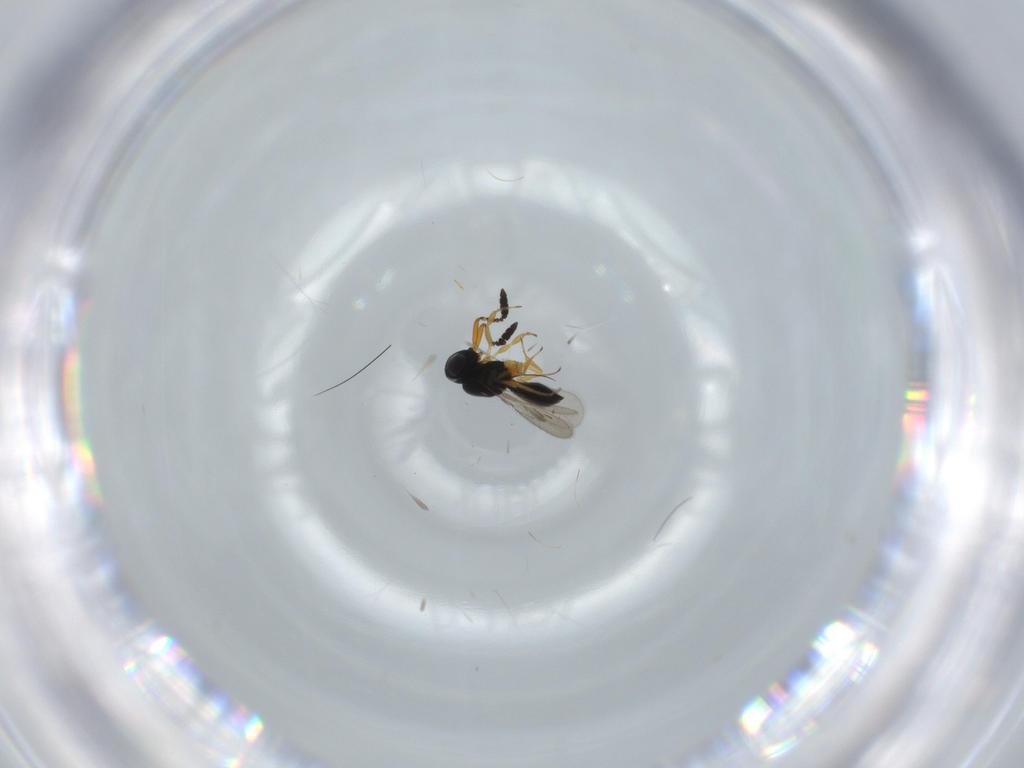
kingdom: Animalia
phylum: Arthropoda
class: Insecta
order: Hymenoptera
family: Scelionidae
